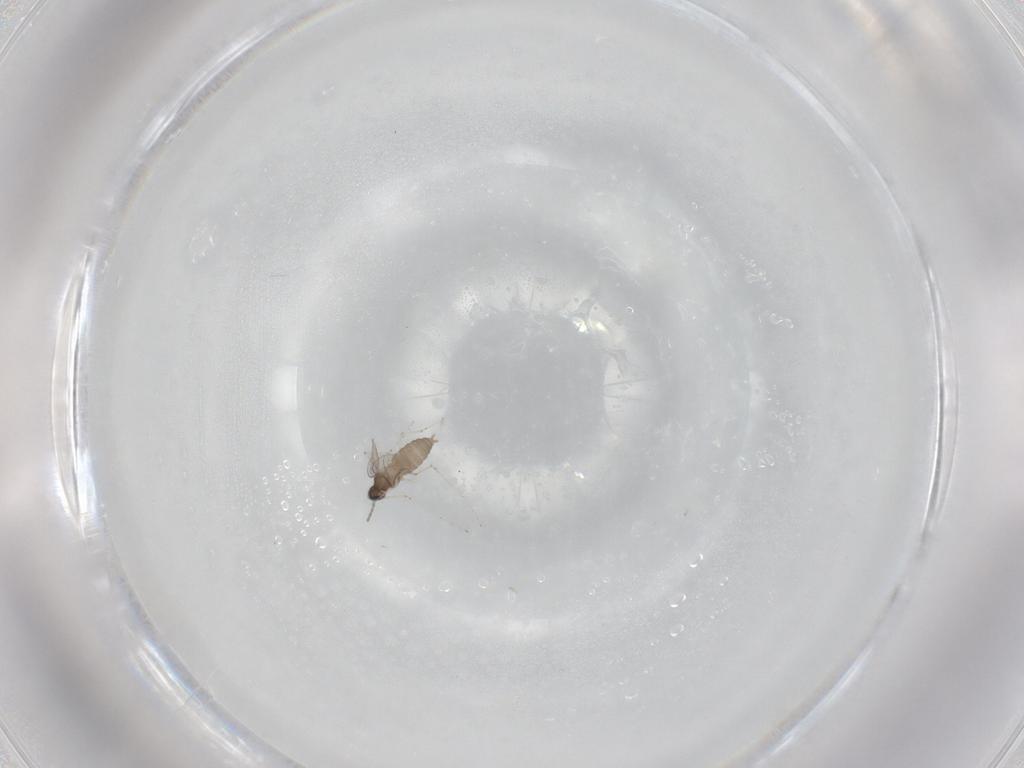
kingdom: Animalia
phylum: Arthropoda
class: Insecta
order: Diptera
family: Cecidomyiidae
